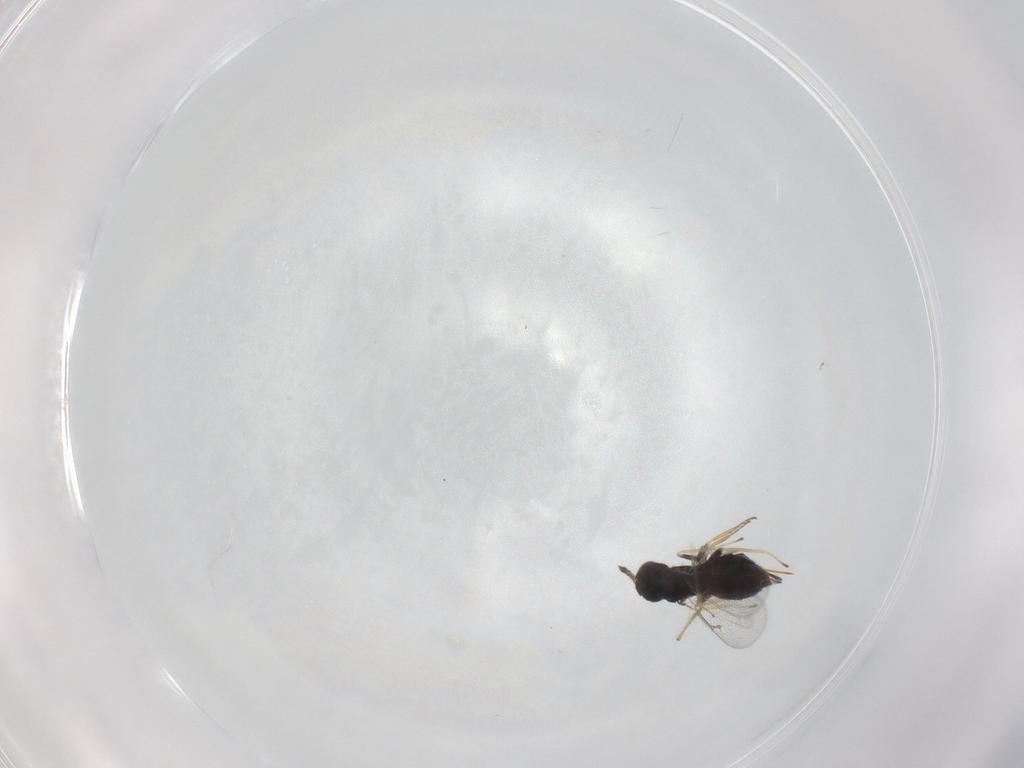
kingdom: Animalia
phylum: Arthropoda
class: Insecta
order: Hymenoptera
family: Eulophidae
